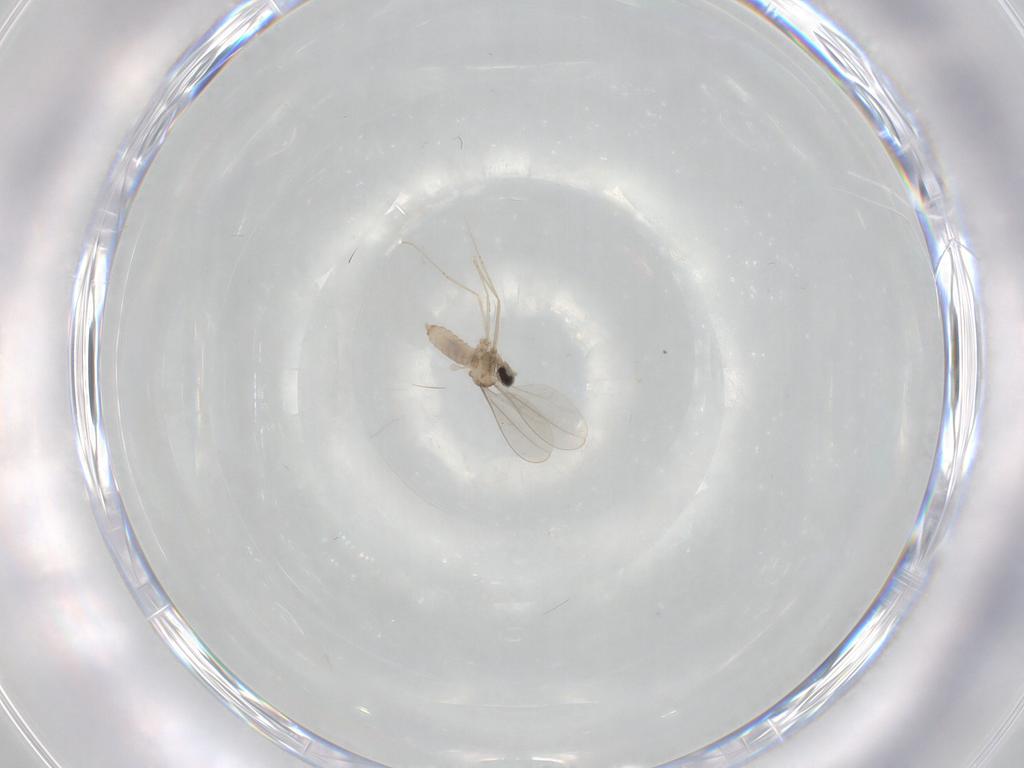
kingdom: Animalia
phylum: Arthropoda
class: Insecta
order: Diptera
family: Cecidomyiidae
